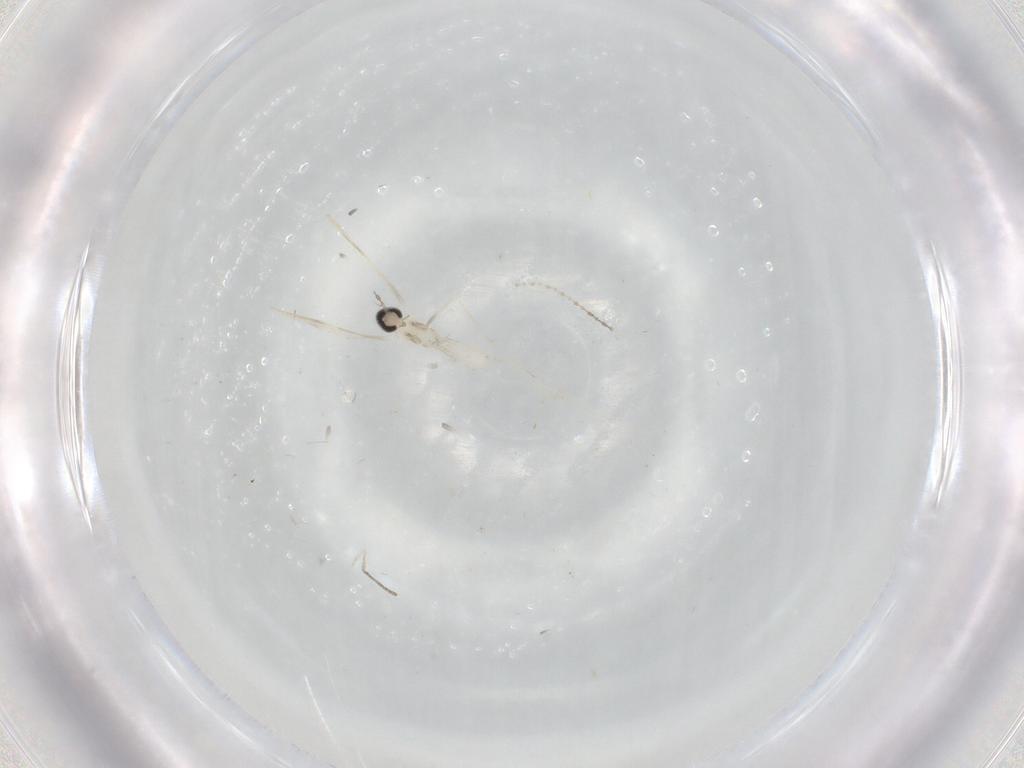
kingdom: Animalia
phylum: Arthropoda
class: Insecta
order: Diptera
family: Cecidomyiidae
